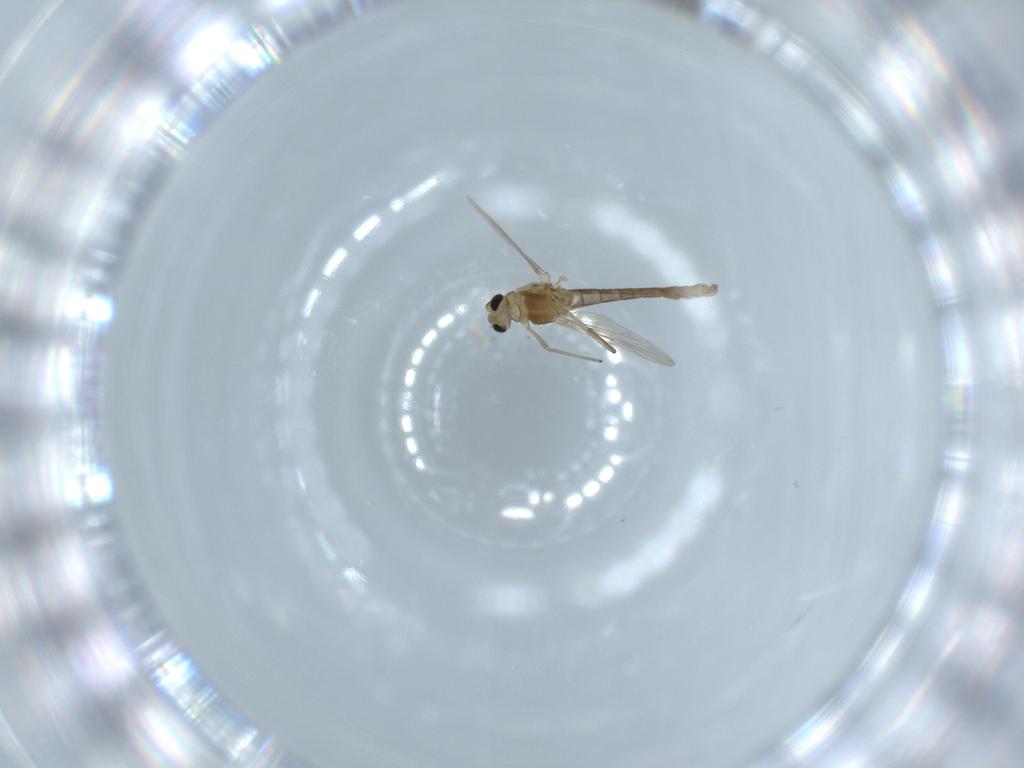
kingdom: Animalia
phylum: Arthropoda
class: Insecta
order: Diptera
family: Chironomidae
